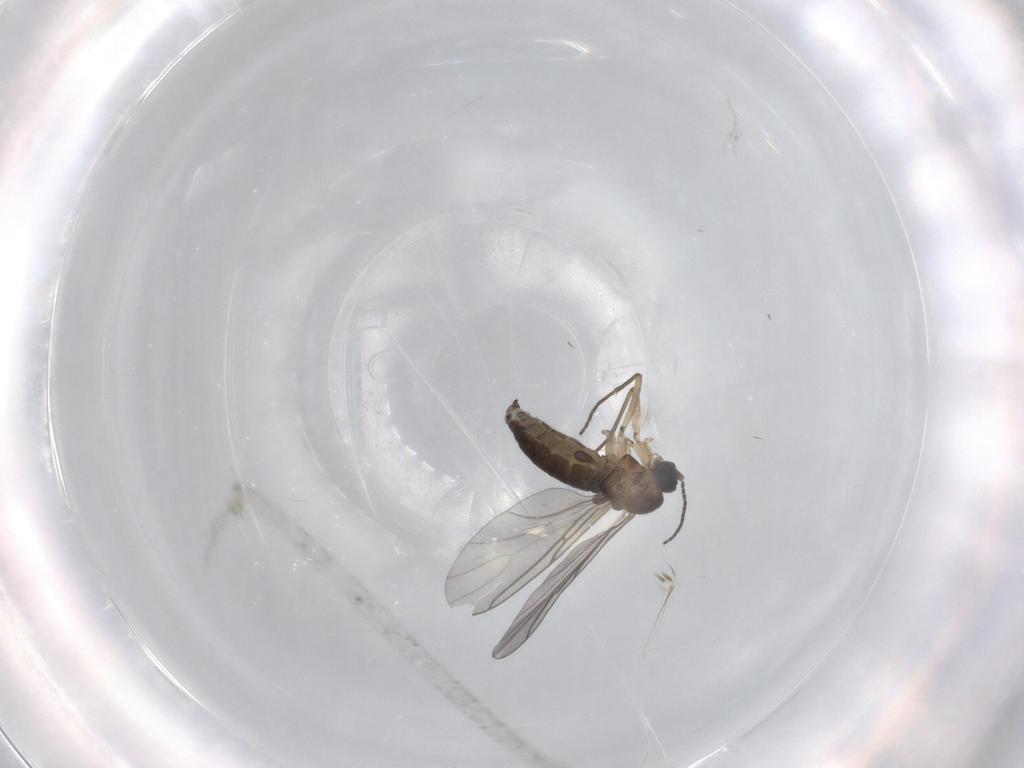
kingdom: Animalia
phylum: Arthropoda
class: Insecta
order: Diptera
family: Sciaridae
